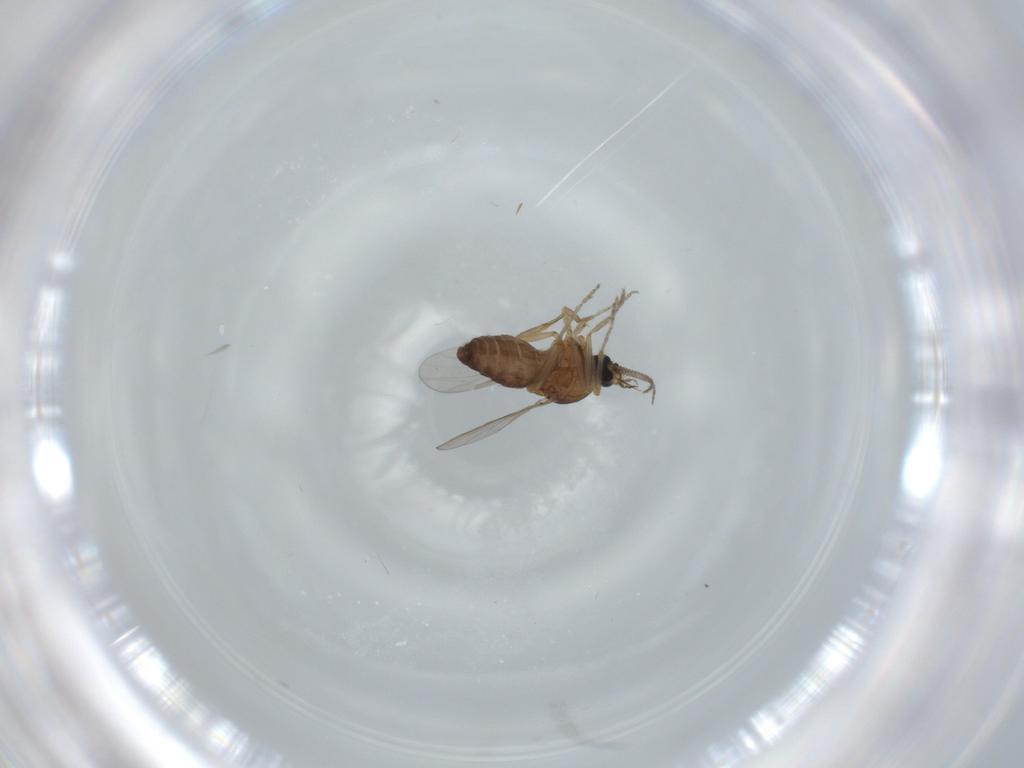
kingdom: Animalia
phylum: Arthropoda
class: Insecta
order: Diptera
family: Ceratopogonidae
